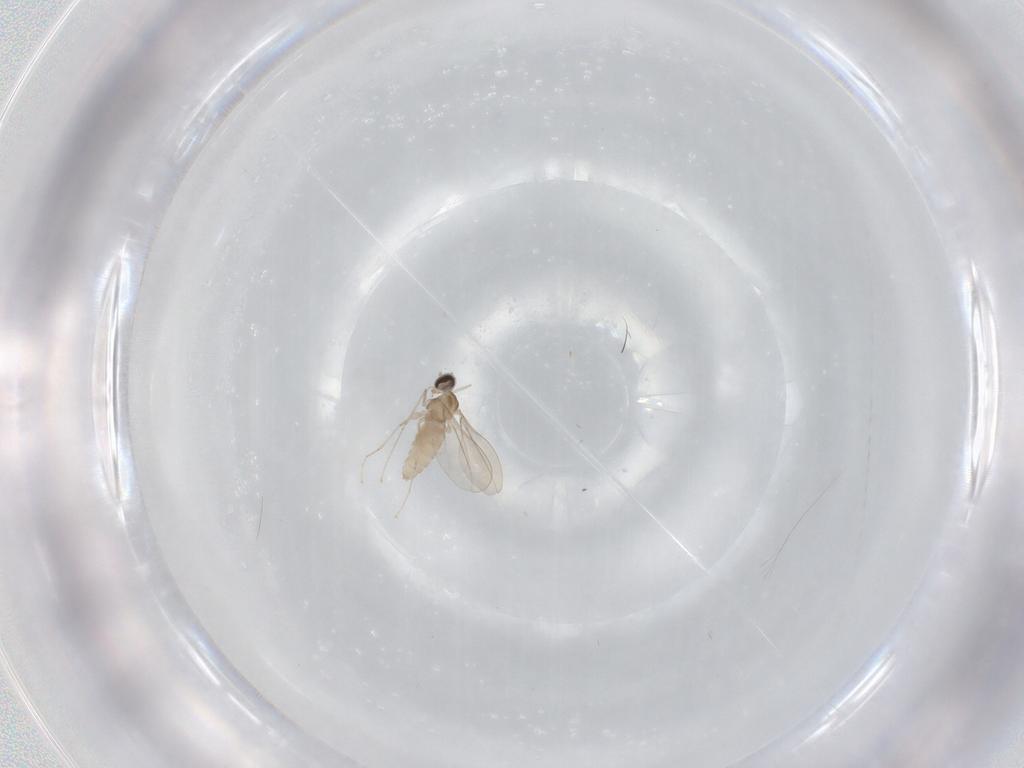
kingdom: Animalia
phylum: Arthropoda
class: Insecta
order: Diptera
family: Cecidomyiidae
